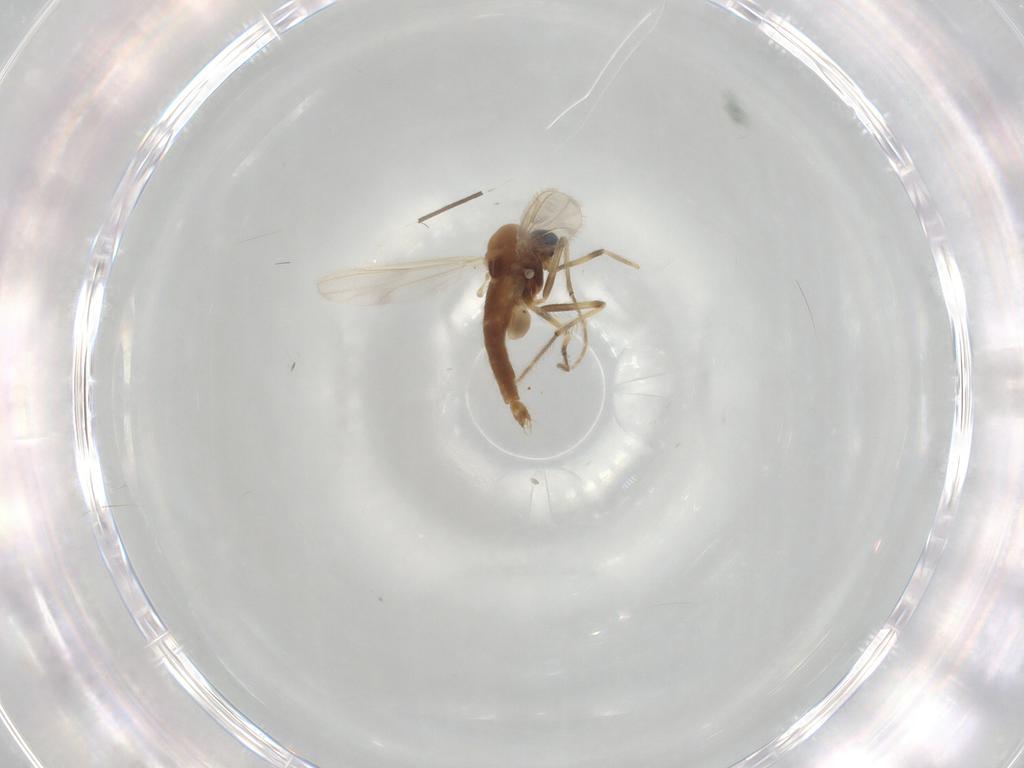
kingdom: Animalia
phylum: Arthropoda
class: Insecta
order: Diptera
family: Chironomidae
